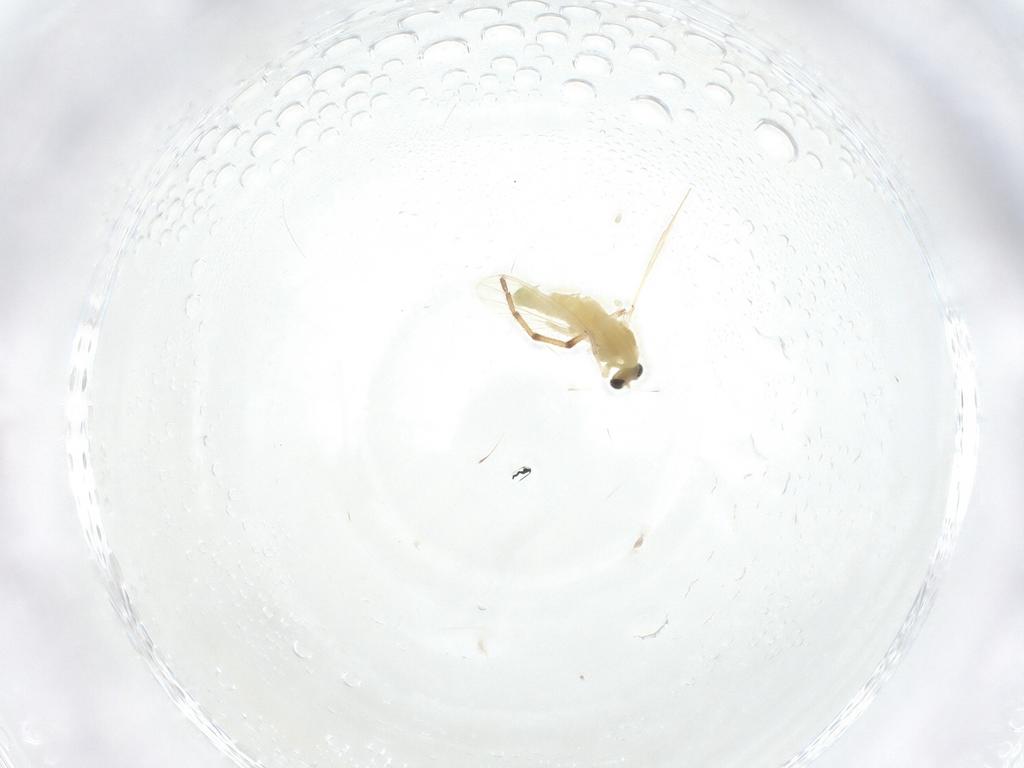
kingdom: Animalia
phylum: Arthropoda
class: Insecta
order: Diptera
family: Chironomidae
